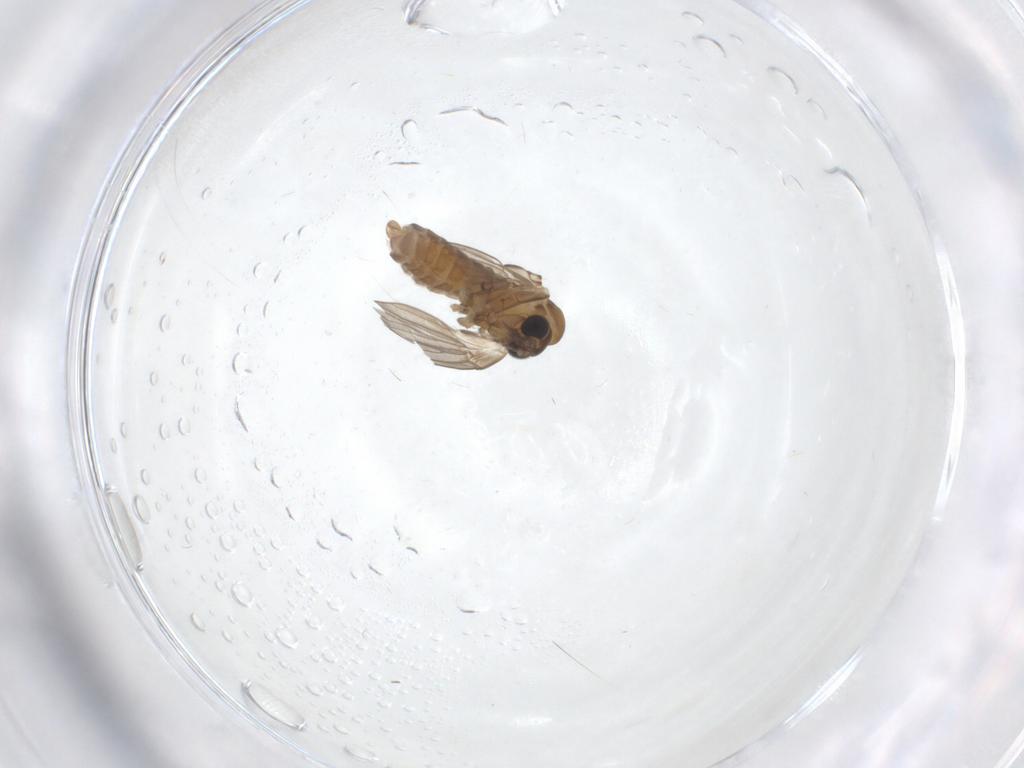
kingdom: Animalia
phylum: Arthropoda
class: Insecta
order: Diptera
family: Psychodidae
